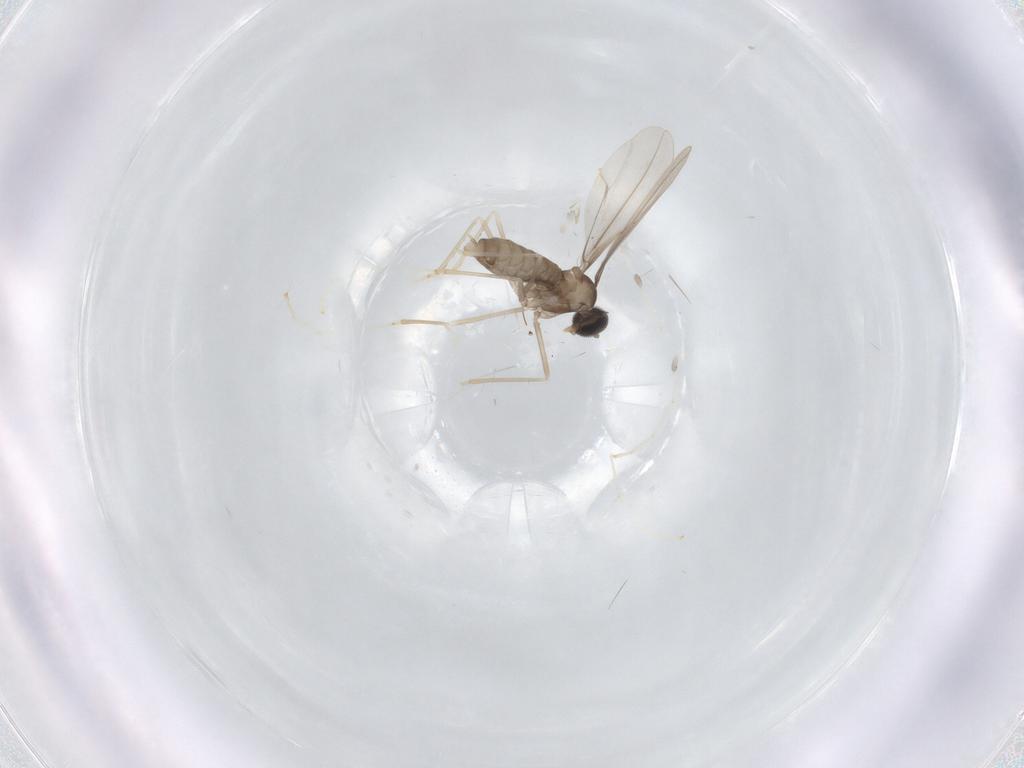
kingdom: Animalia
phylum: Arthropoda
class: Insecta
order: Diptera
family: Cecidomyiidae
